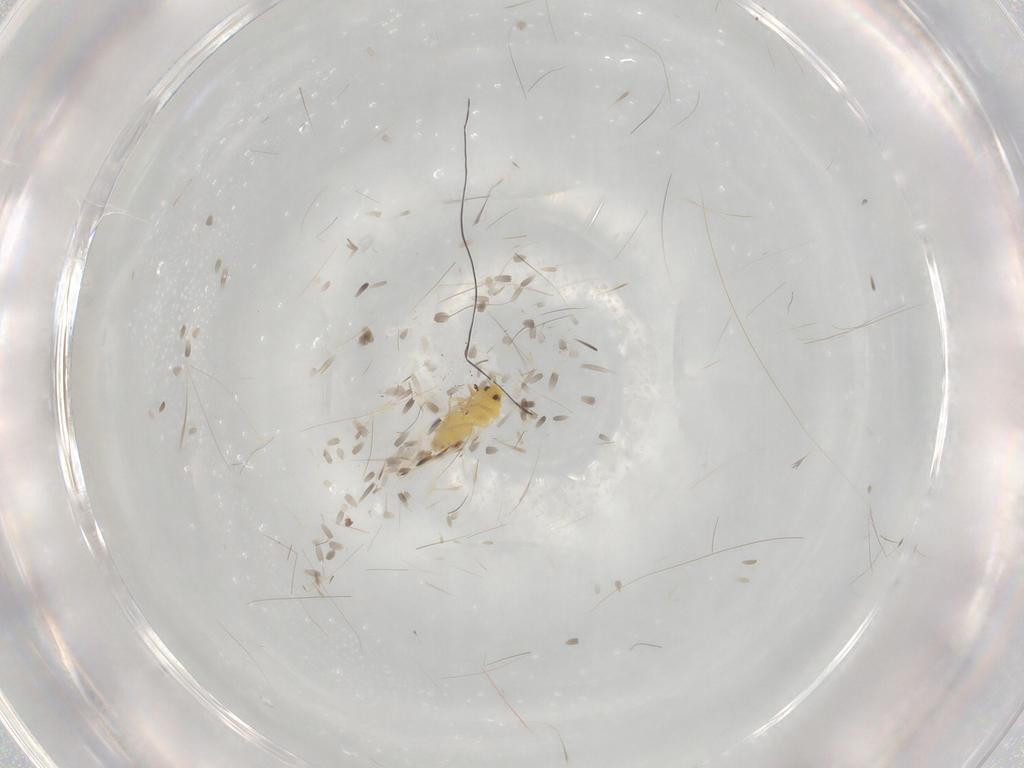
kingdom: Animalia
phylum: Arthropoda
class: Insecta
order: Hemiptera
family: Aleyrodidae
